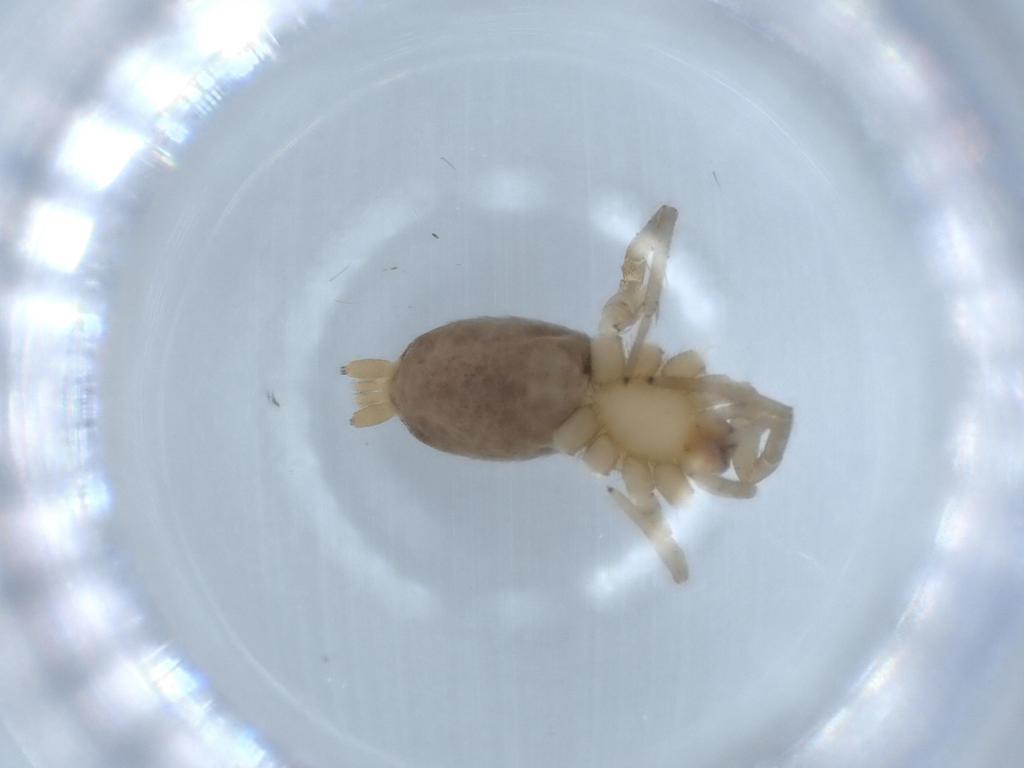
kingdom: Animalia
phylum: Arthropoda
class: Arachnida
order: Araneae
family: Gnaphosidae
